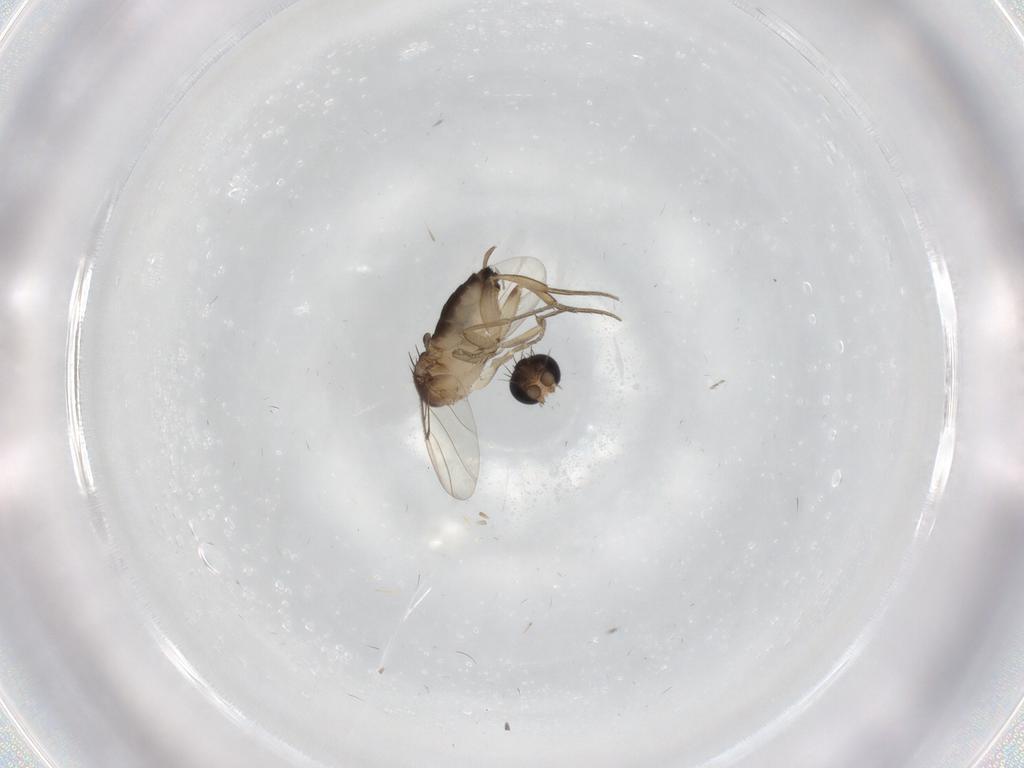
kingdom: Animalia
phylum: Arthropoda
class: Insecta
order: Diptera
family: Chironomidae
